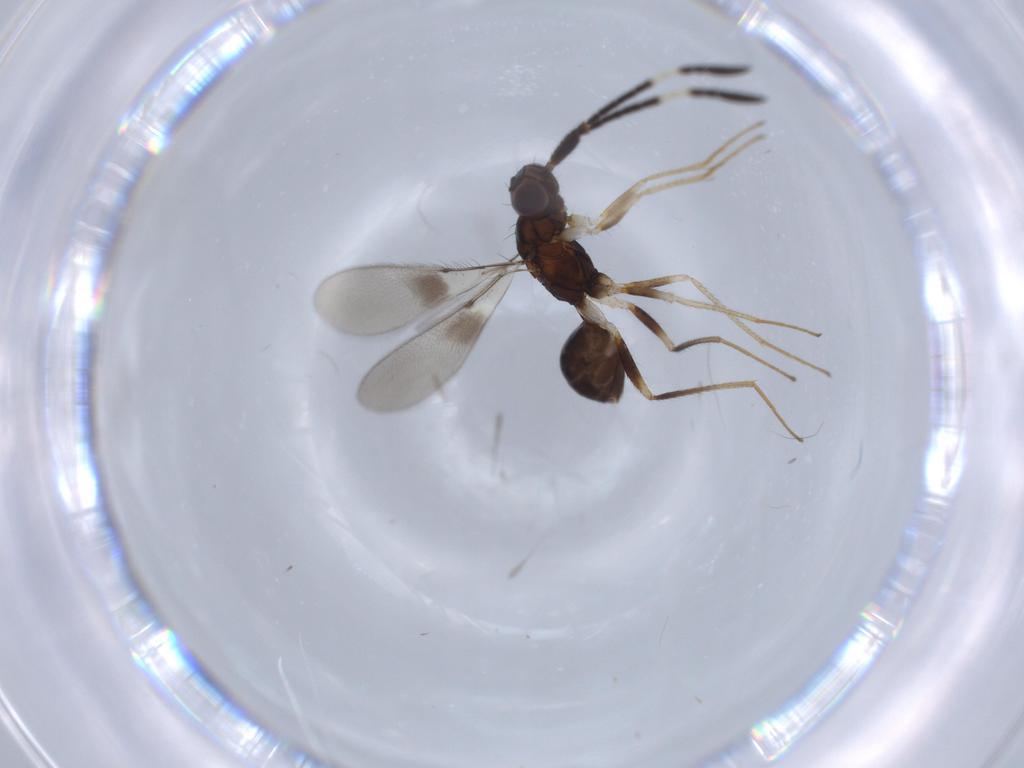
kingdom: Animalia
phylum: Arthropoda
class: Insecta
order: Hymenoptera
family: Mymaridae
